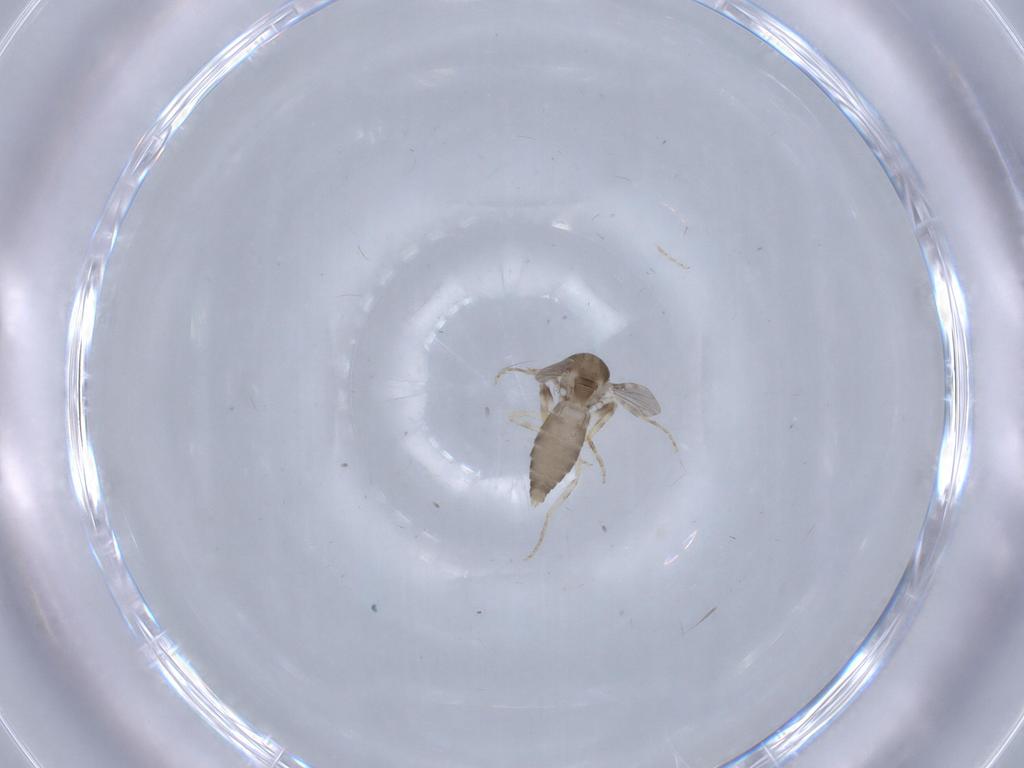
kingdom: Animalia
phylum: Arthropoda
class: Insecta
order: Diptera
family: Ceratopogonidae
